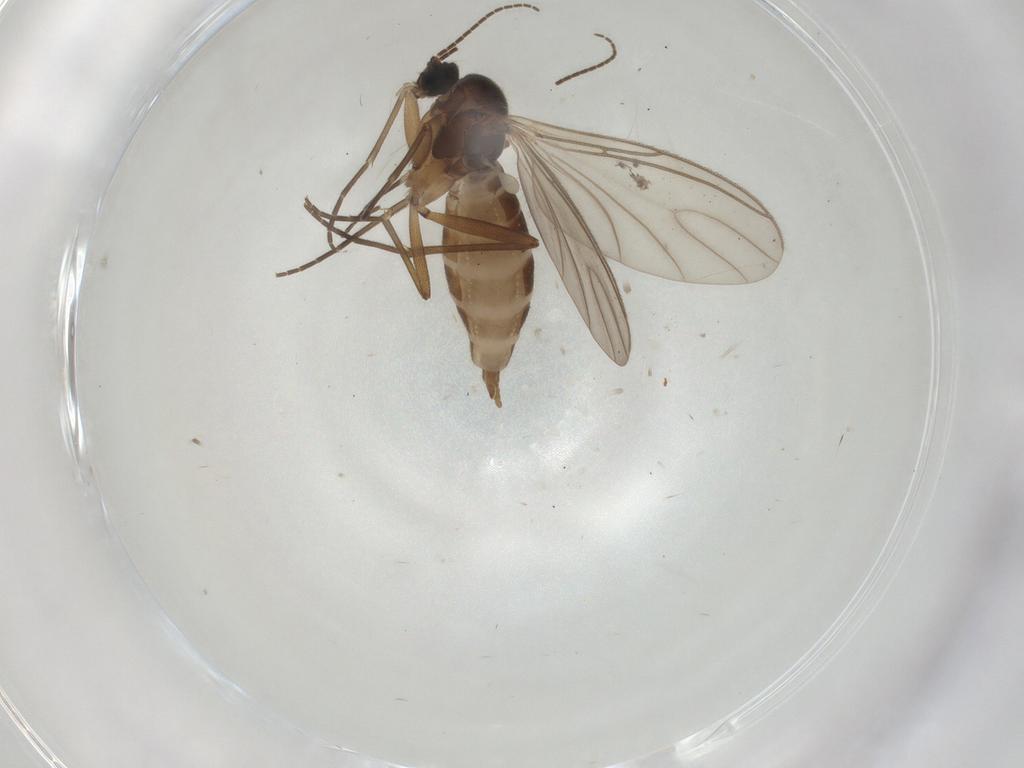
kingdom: Animalia
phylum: Arthropoda
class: Insecta
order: Diptera
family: Sciaridae
